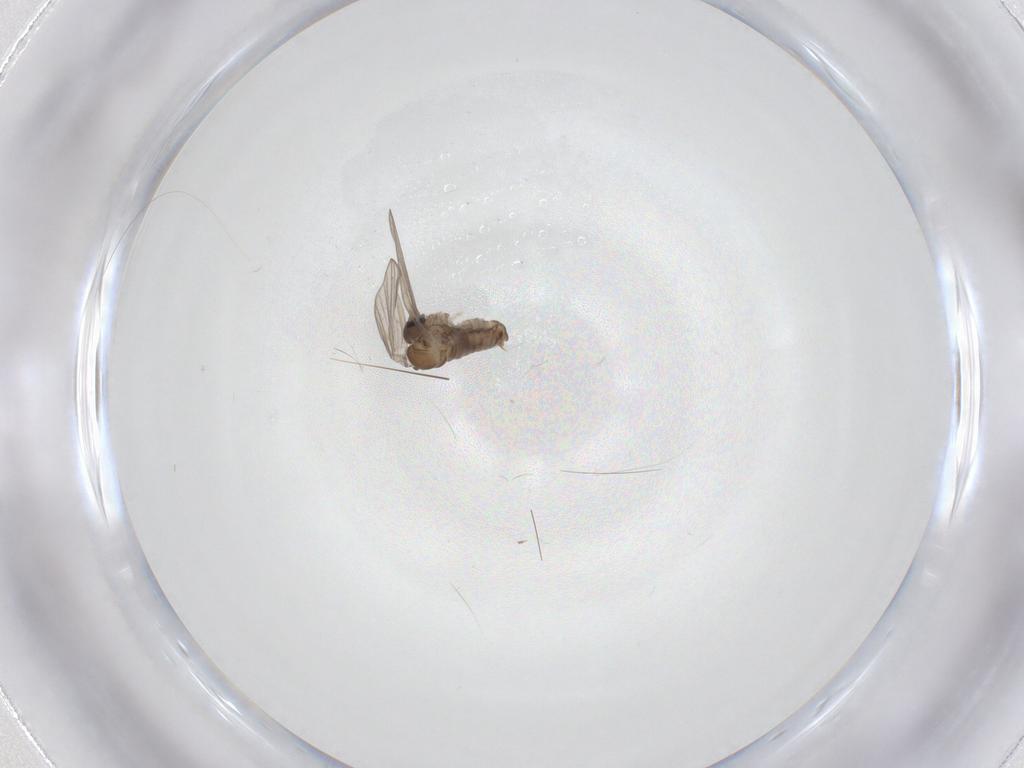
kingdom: Animalia
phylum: Arthropoda
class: Insecta
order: Diptera
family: Psychodidae
